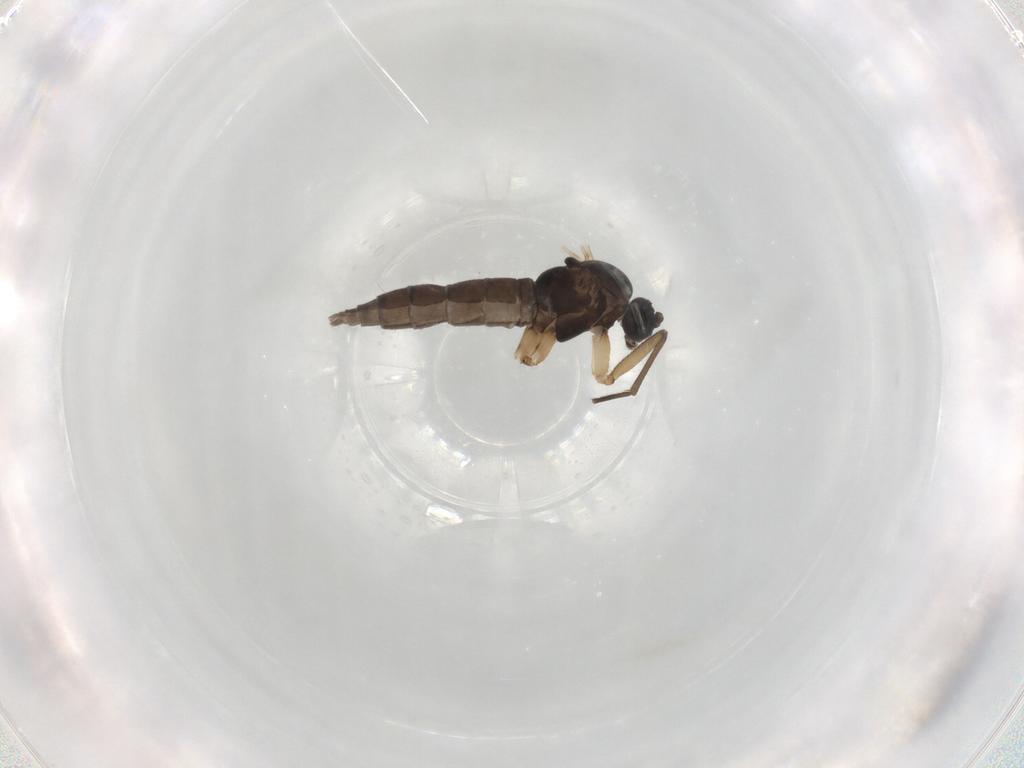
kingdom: Animalia
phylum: Arthropoda
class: Insecta
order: Diptera
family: Sciaridae
